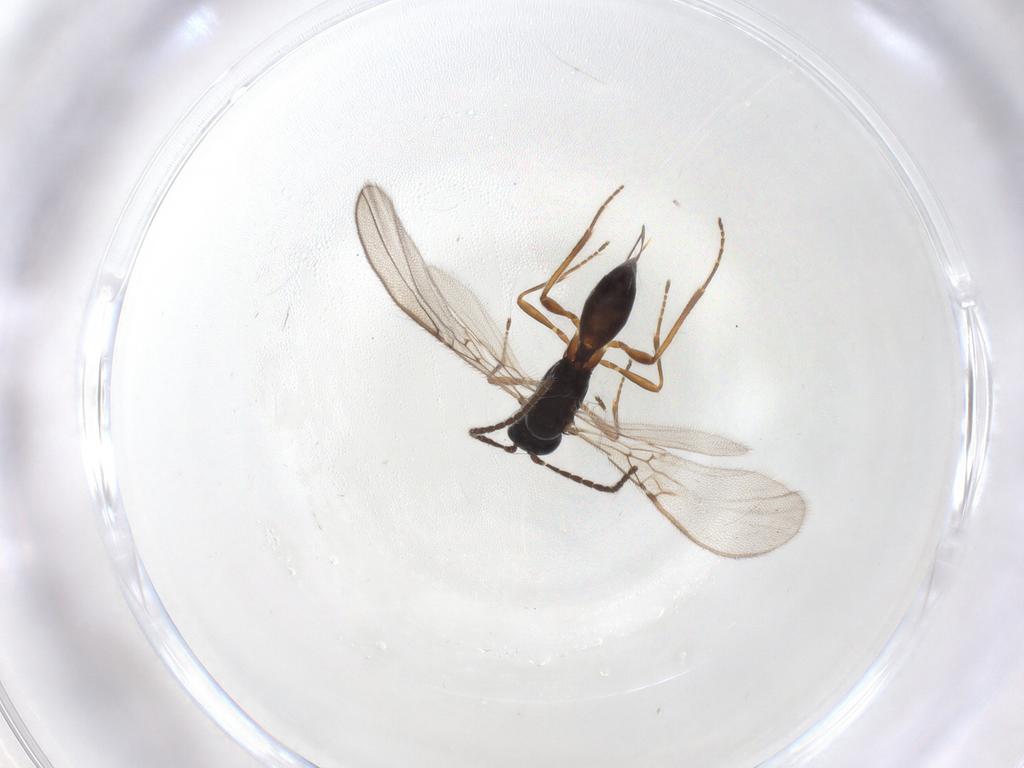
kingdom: Animalia
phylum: Arthropoda
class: Insecta
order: Hymenoptera
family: Braconidae
